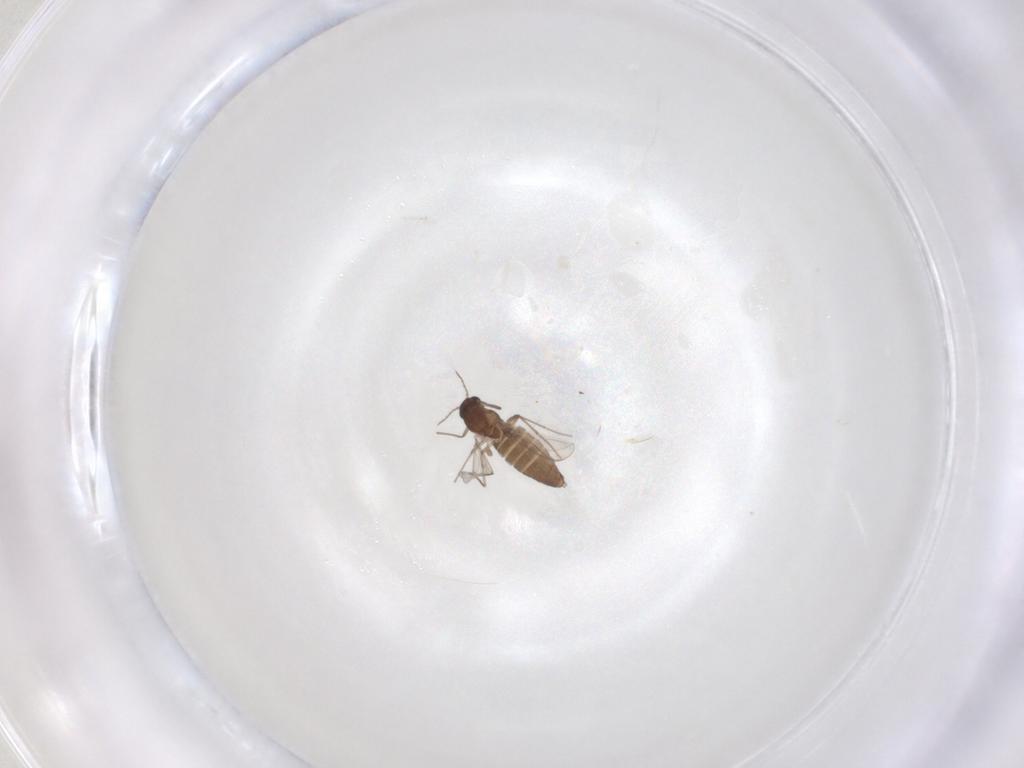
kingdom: Animalia
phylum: Arthropoda
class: Insecta
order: Diptera
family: Chironomidae
